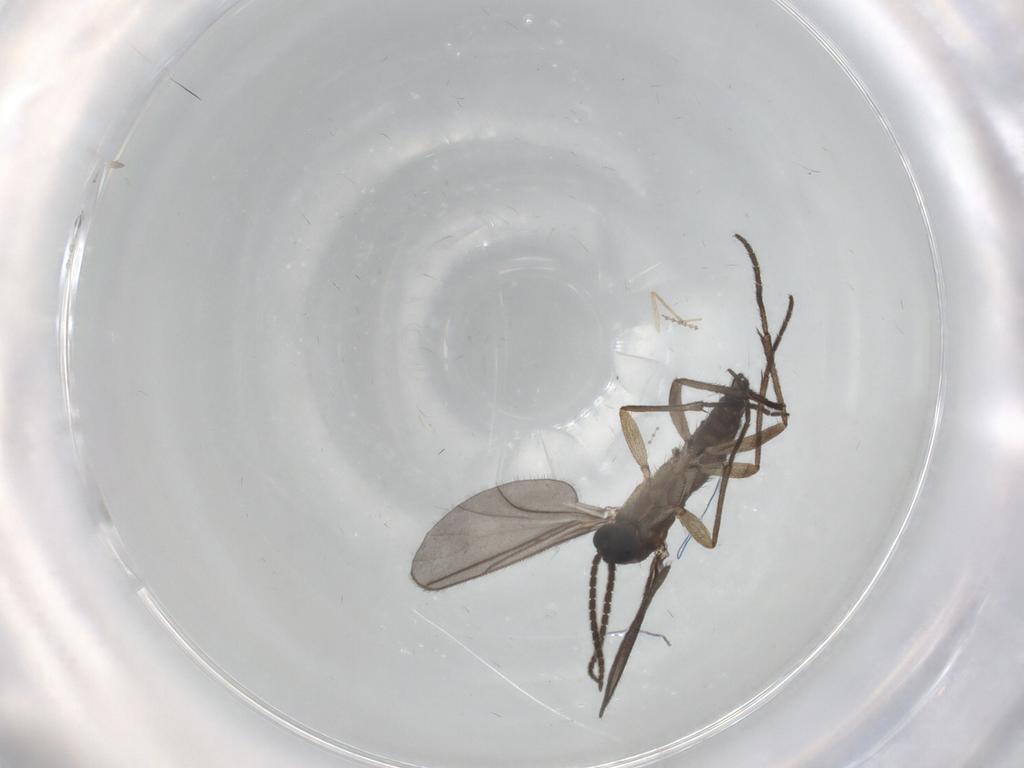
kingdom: Animalia
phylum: Arthropoda
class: Insecta
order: Diptera
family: Sciaridae
